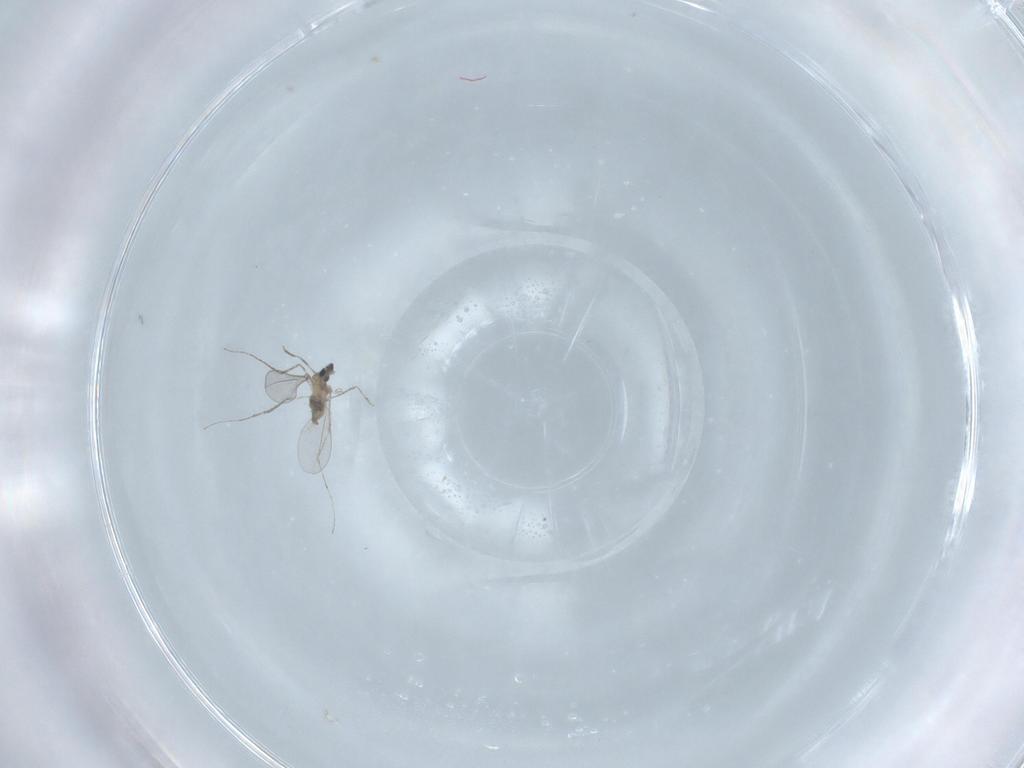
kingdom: Animalia
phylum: Arthropoda
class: Insecta
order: Diptera
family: Cecidomyiidae
